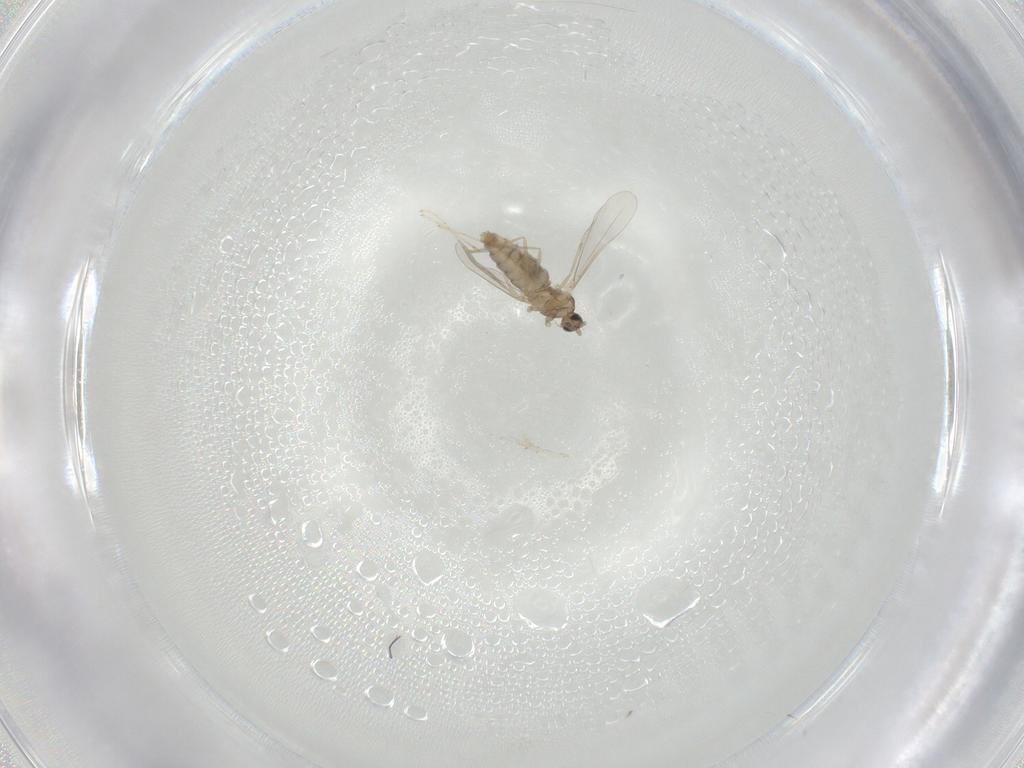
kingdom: Animalia
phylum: Arthropoda
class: Insecta
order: Diptera
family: Cecidomyiidae
